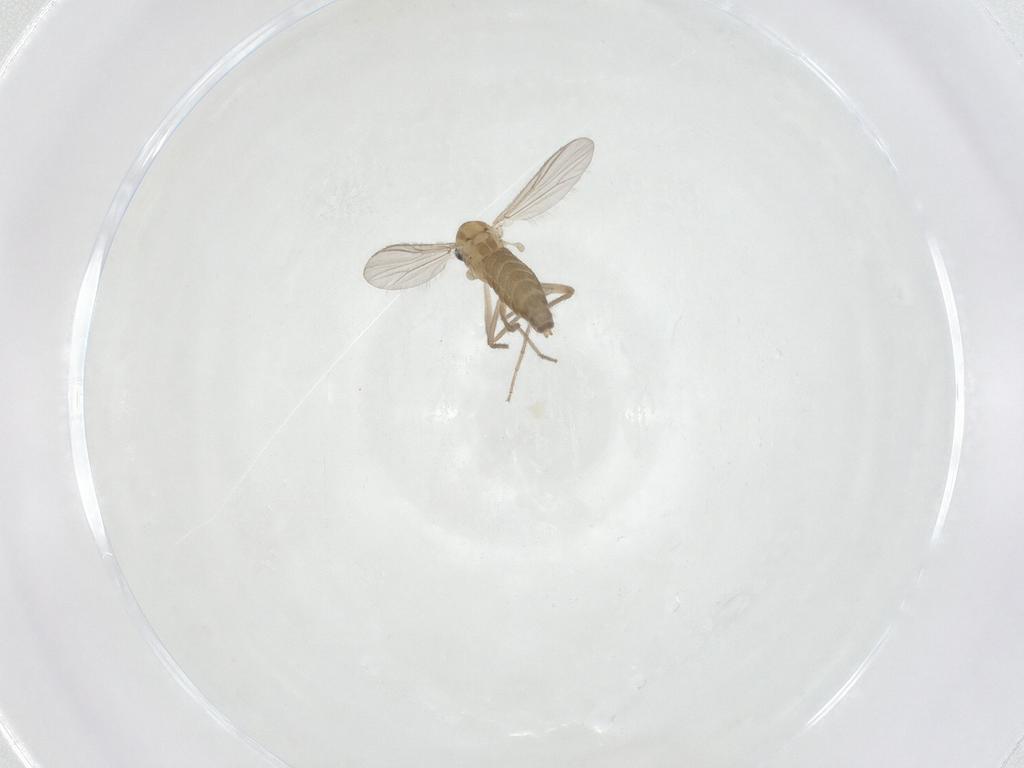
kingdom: Animalia
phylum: Arthropoda
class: Insecta
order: Diptera
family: Chironomidae
